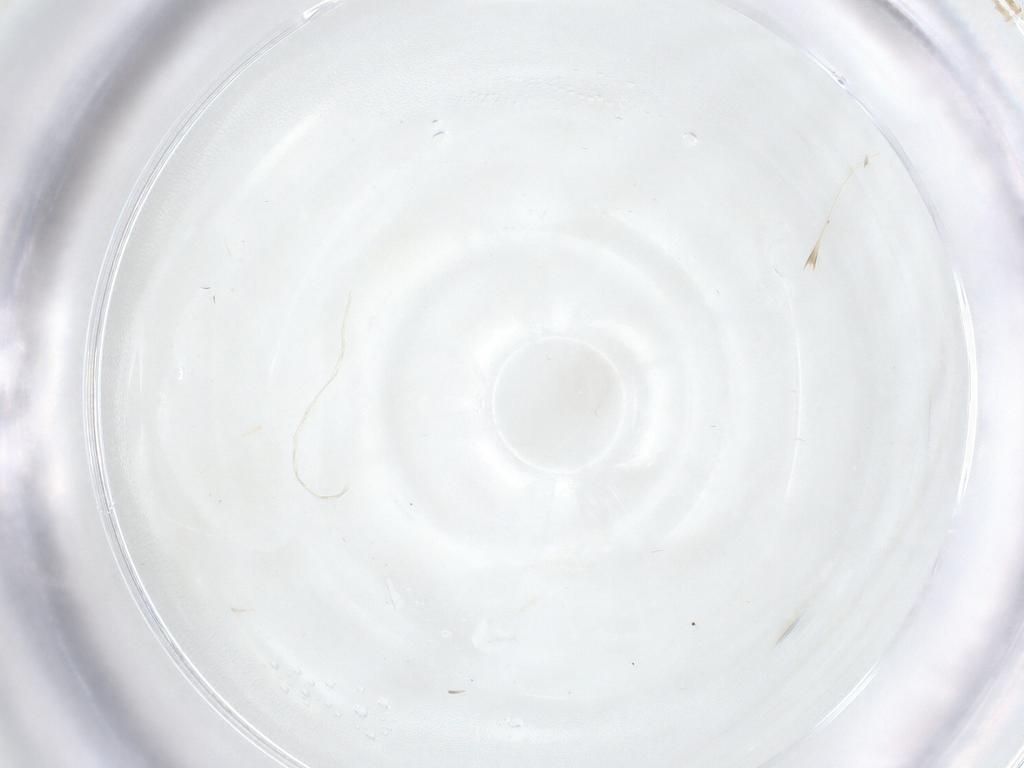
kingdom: Animalia
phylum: Arthropoda
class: Insecta
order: Hymenoptera
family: Mymaridae
